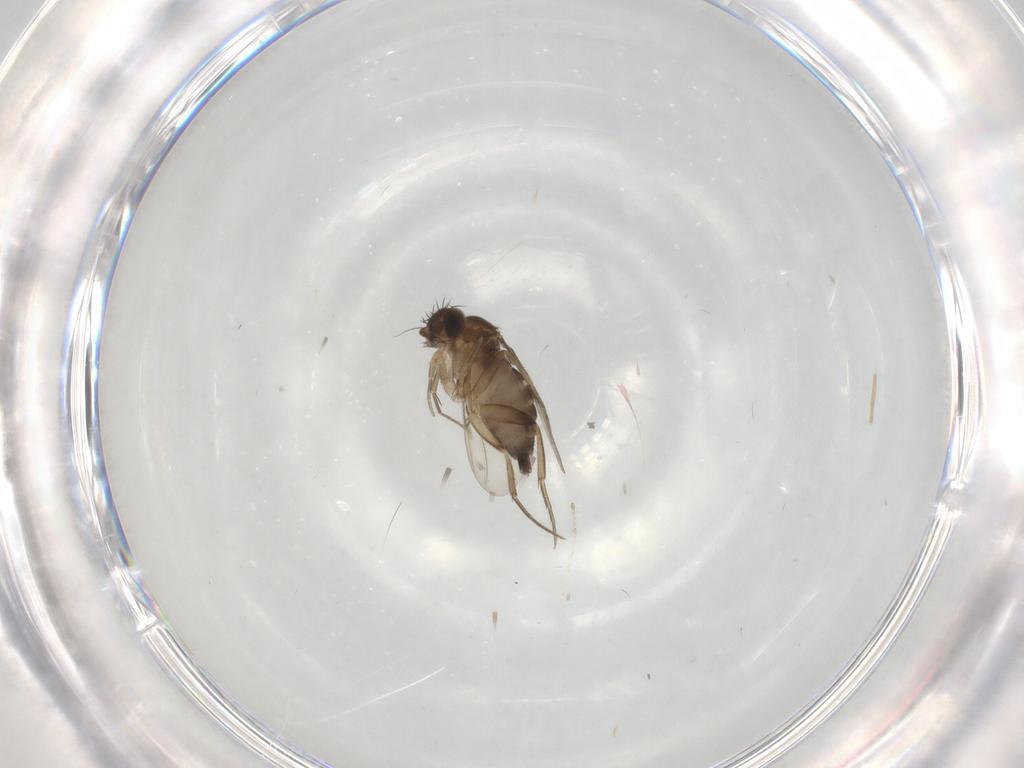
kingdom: Animalia
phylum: Arthropoda
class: Insecta
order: Diptera
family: Phoridae
